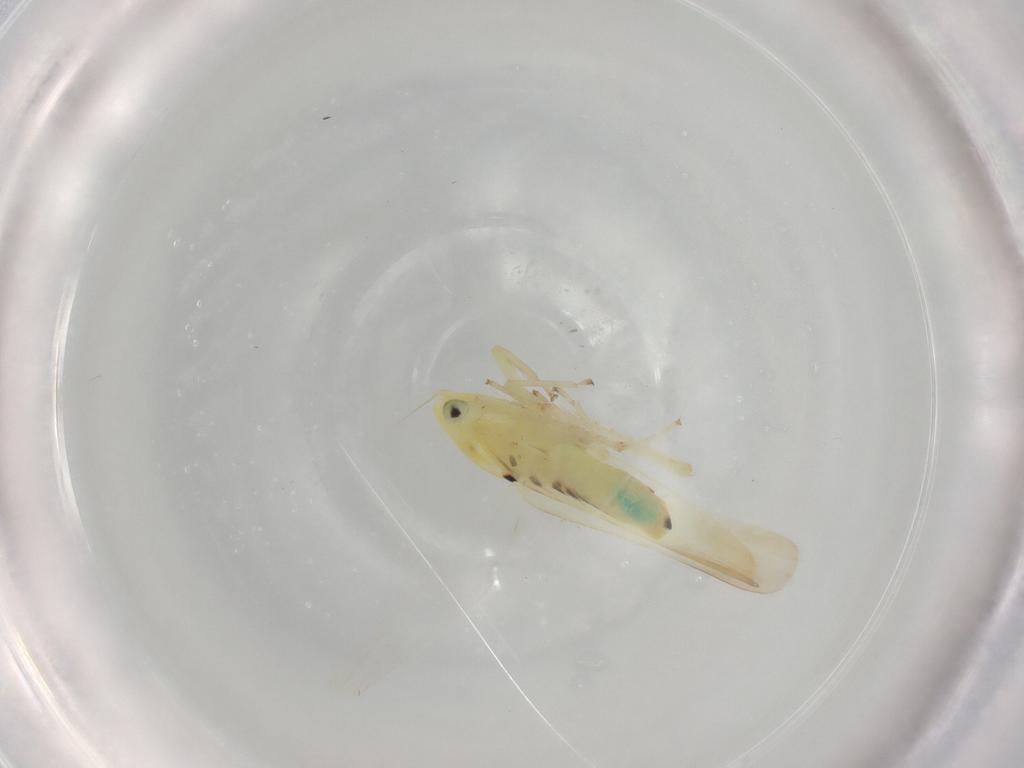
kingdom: Animalia
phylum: Arthropoda
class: Insecta
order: Hemiptera
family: Cicadellidae
